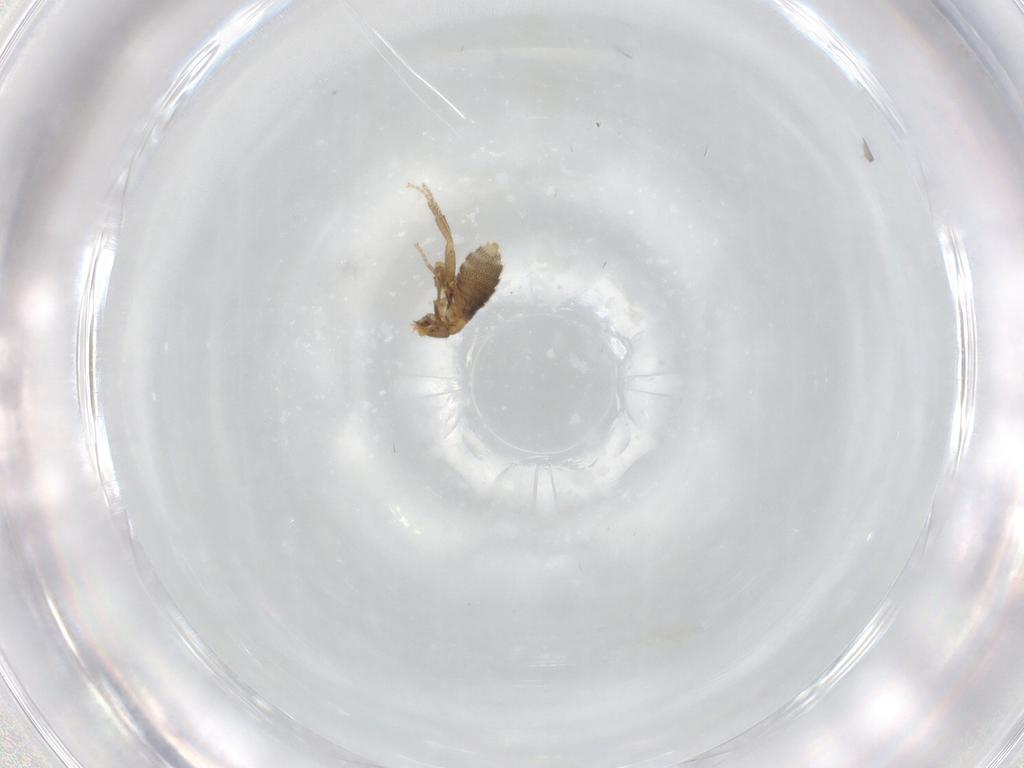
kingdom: Animalia
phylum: Arthropoda
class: Insecta
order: Diptera
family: Phoridae
